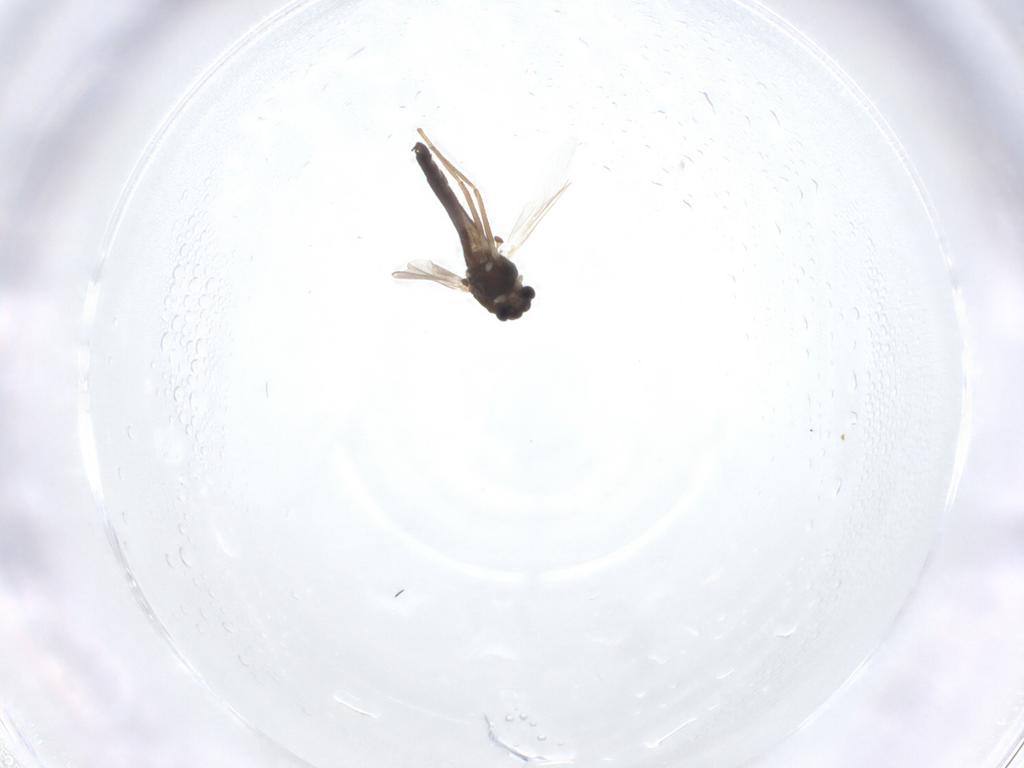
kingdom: Animalia
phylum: Arthropoda
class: Insecta
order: Diptera
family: Chironomidae
